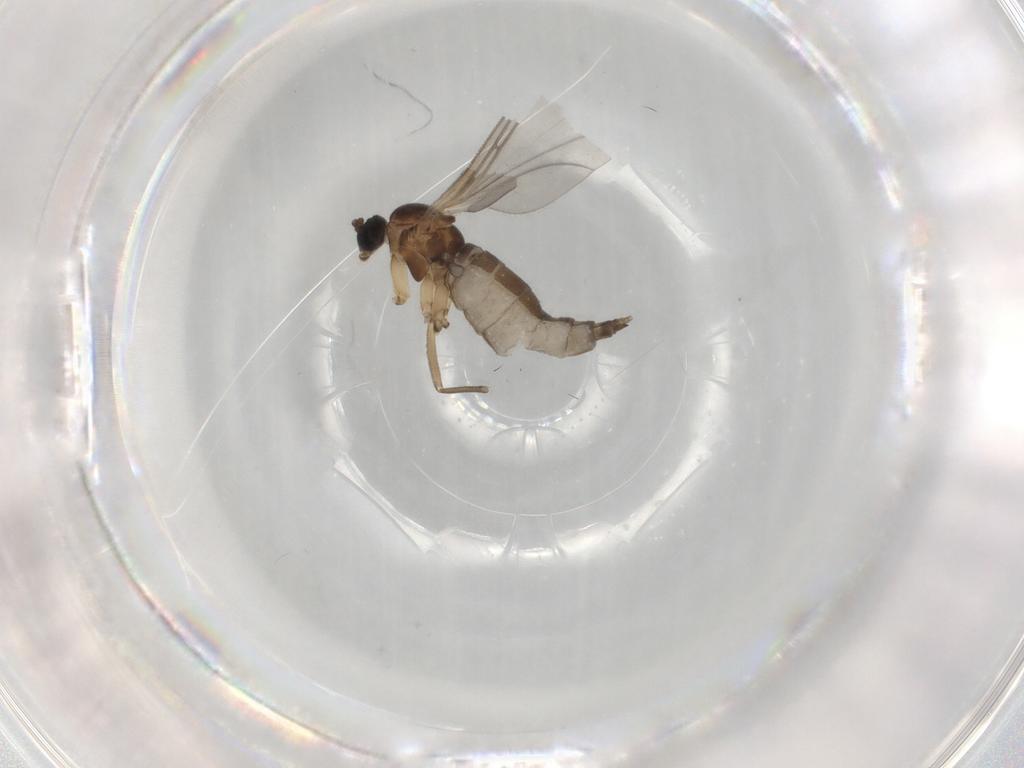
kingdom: Animalia
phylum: Arthropoda
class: Insecta
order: Diptera
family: Sciaridae
